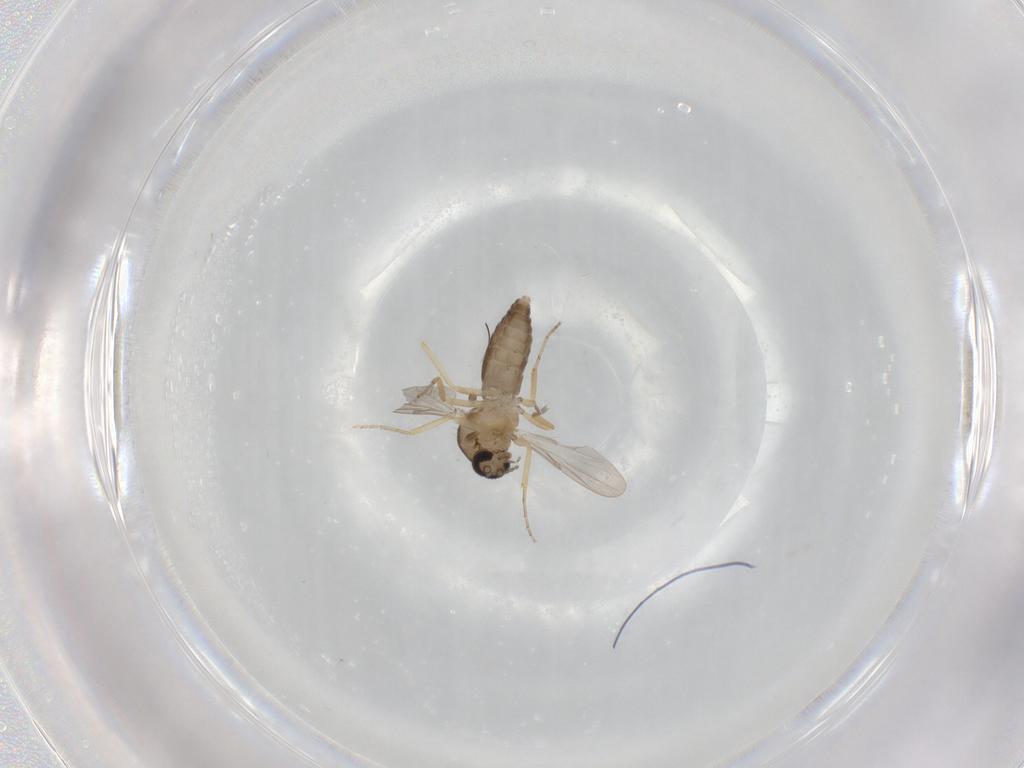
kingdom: Animalia
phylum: Arthropoda
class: Insecta
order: Diptera
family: Ceratopogonidae
